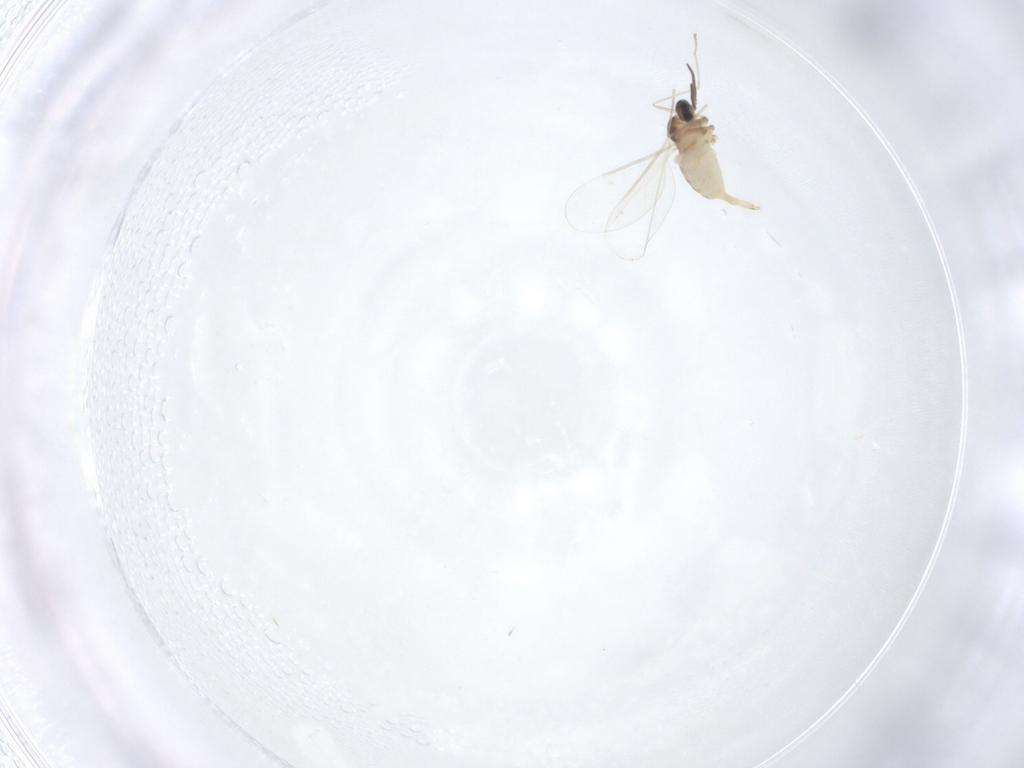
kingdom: Animalia
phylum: Arthropoda
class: Insecta
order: Diptera
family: Cecidomyiidae
